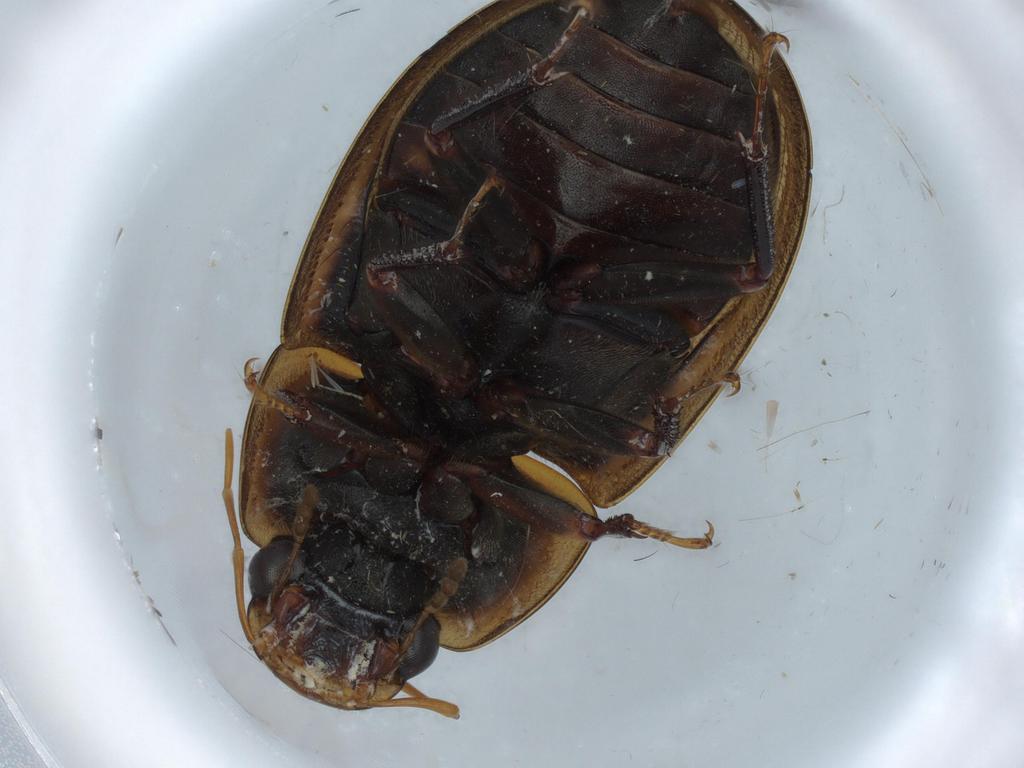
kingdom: Animalia
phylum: Arthropoda
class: Insecta
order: Coleoptera
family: Hydrophilidae
